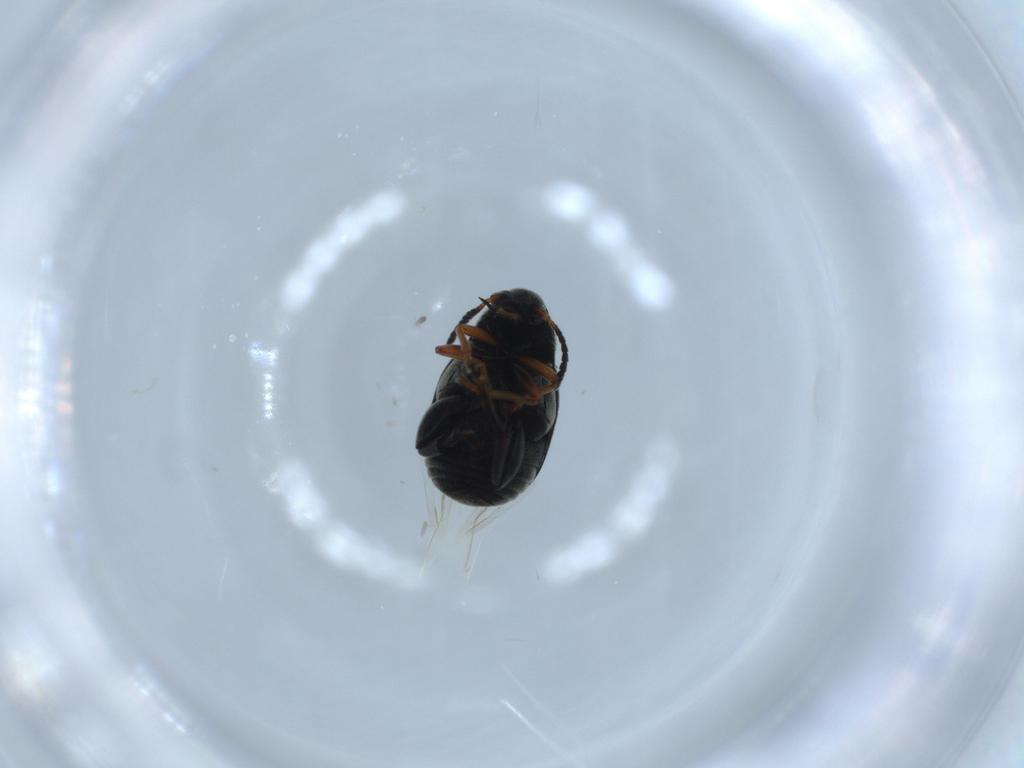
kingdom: Animalia
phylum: Arthropoda
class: Insecta
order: Coleoptera
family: Chrysomelidae
